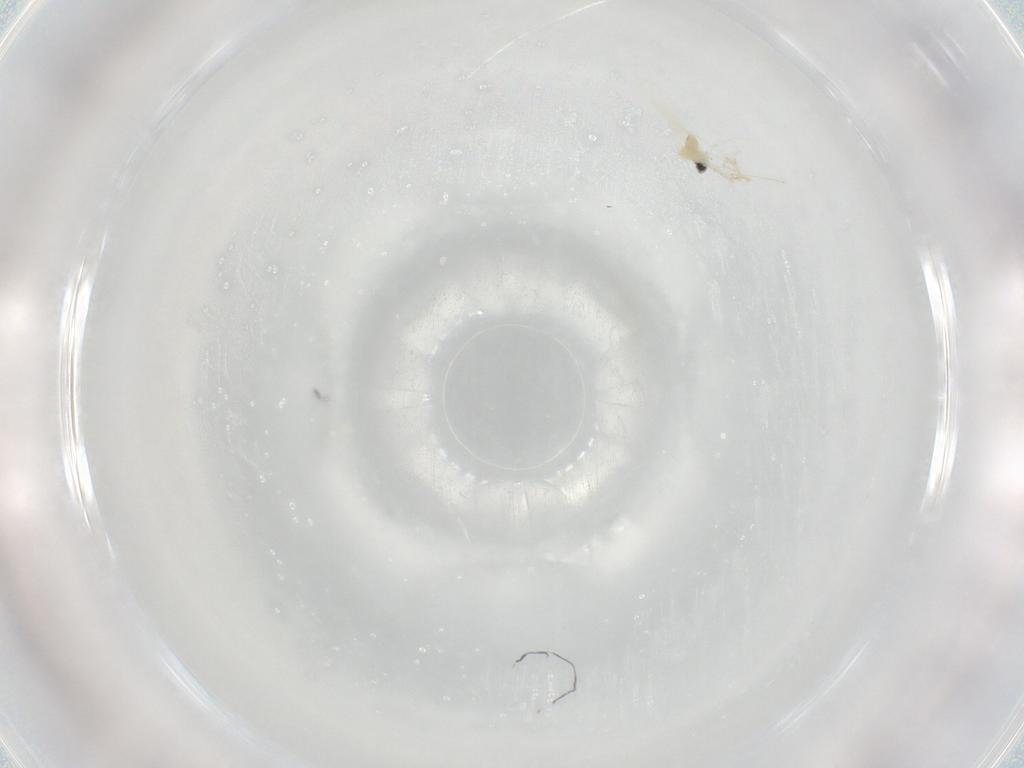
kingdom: Animalia
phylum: Arthropoda
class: Insecta
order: Diptera
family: Cecidomyiidae
